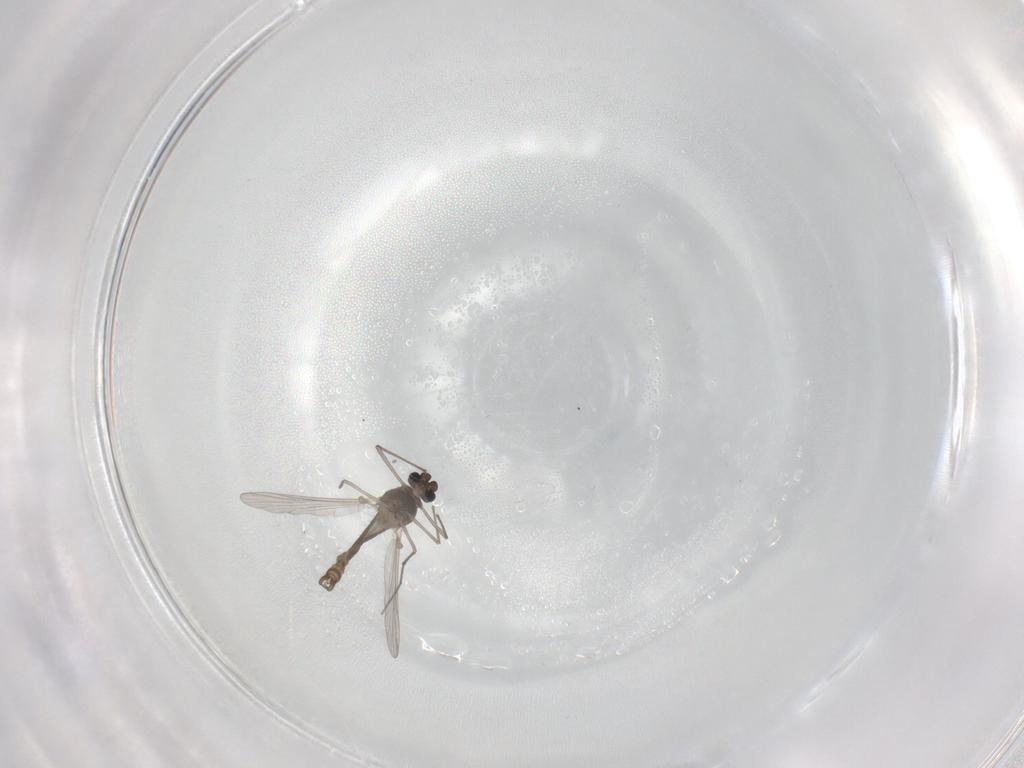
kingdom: Animalia
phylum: Arthropoda
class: Insecta
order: Diptera
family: Chironomidae
